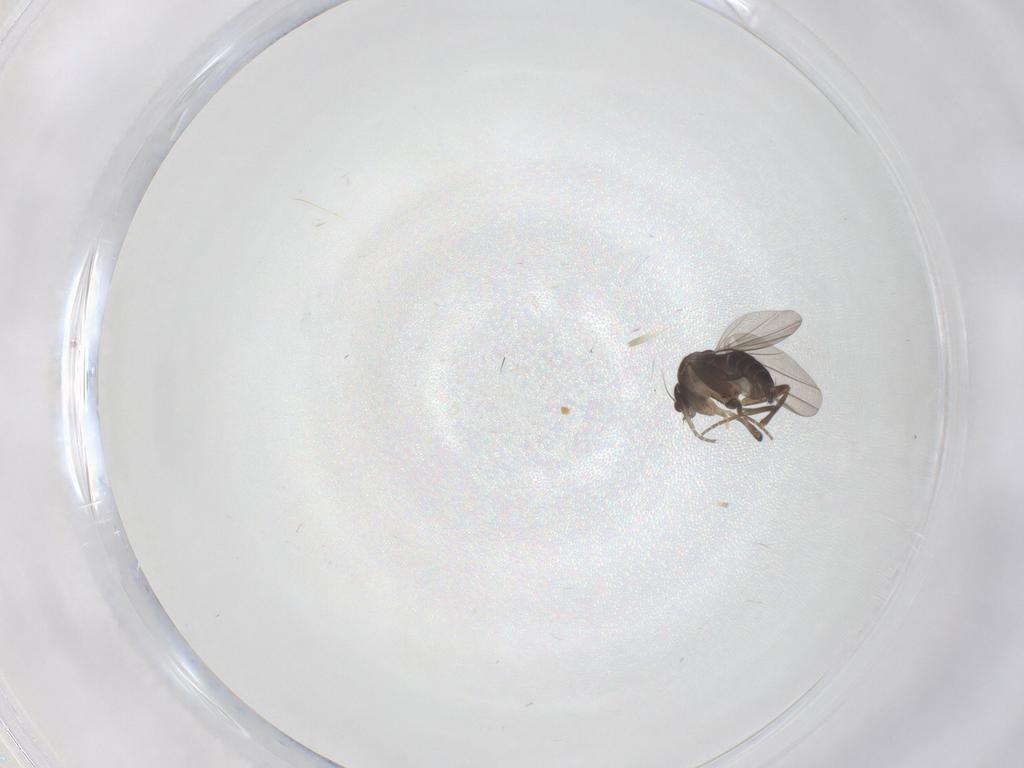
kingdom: Animalia
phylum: Arthropoda
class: Insecta
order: Diptera
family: Phoridae
